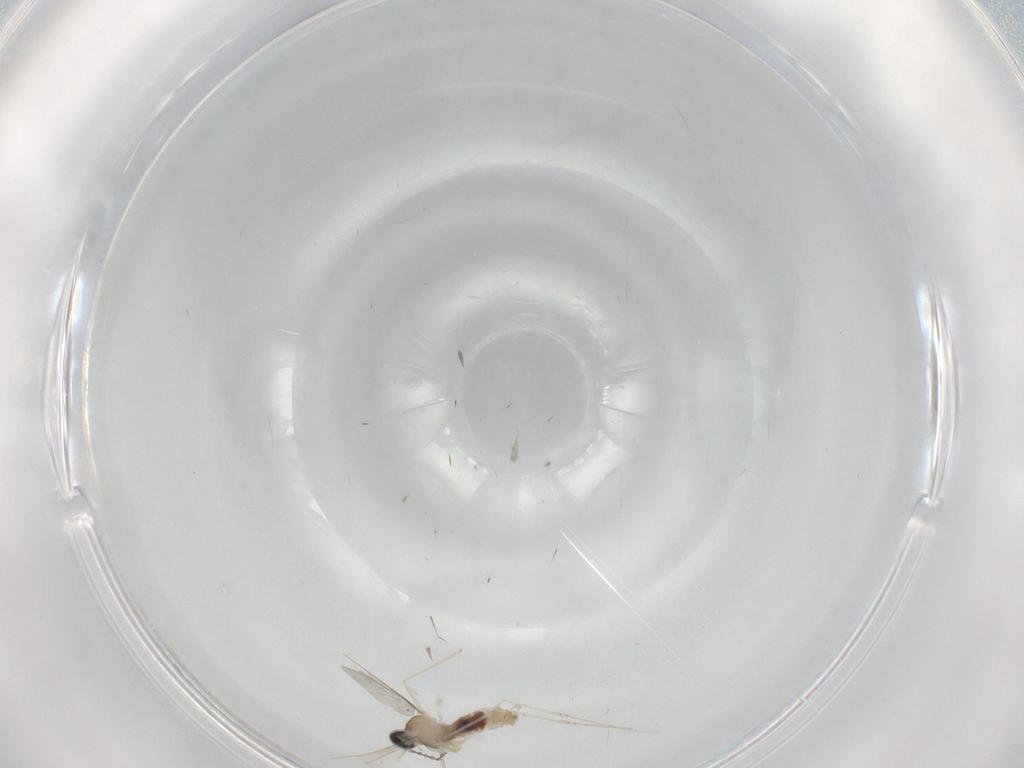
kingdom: Animalia
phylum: Arthropoda
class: Insecta
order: Diptera
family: Cecidomyiidae
